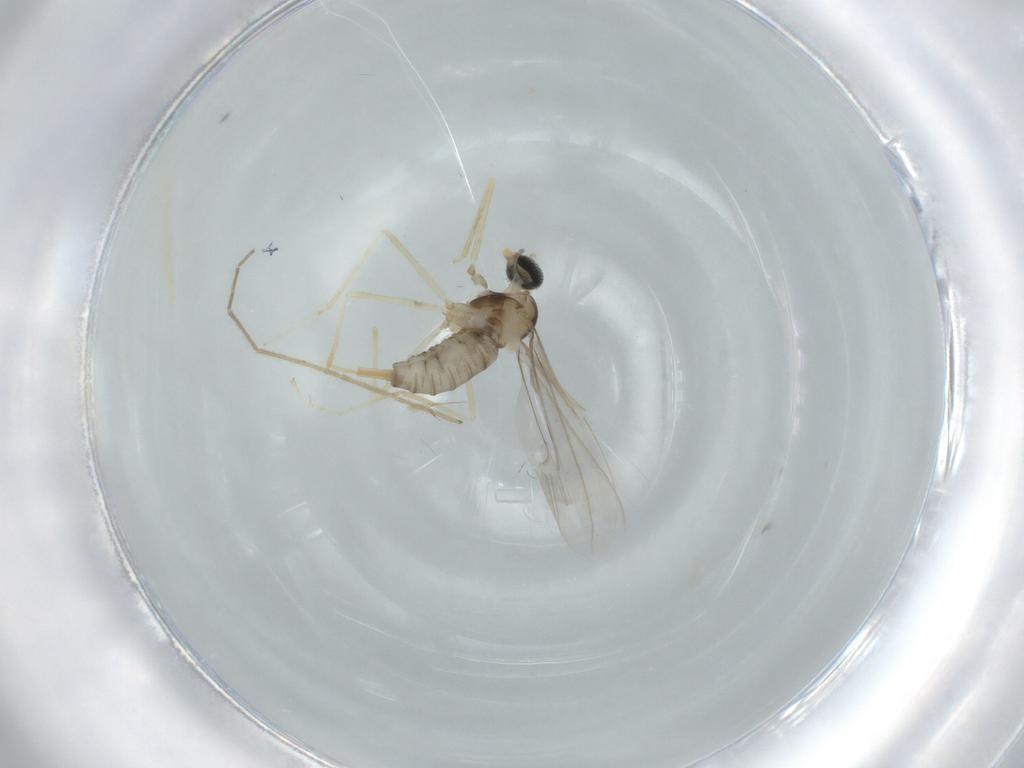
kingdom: Animalia
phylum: Arthropoda
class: Insecta
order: Diptera
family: Cecidomyiidae
